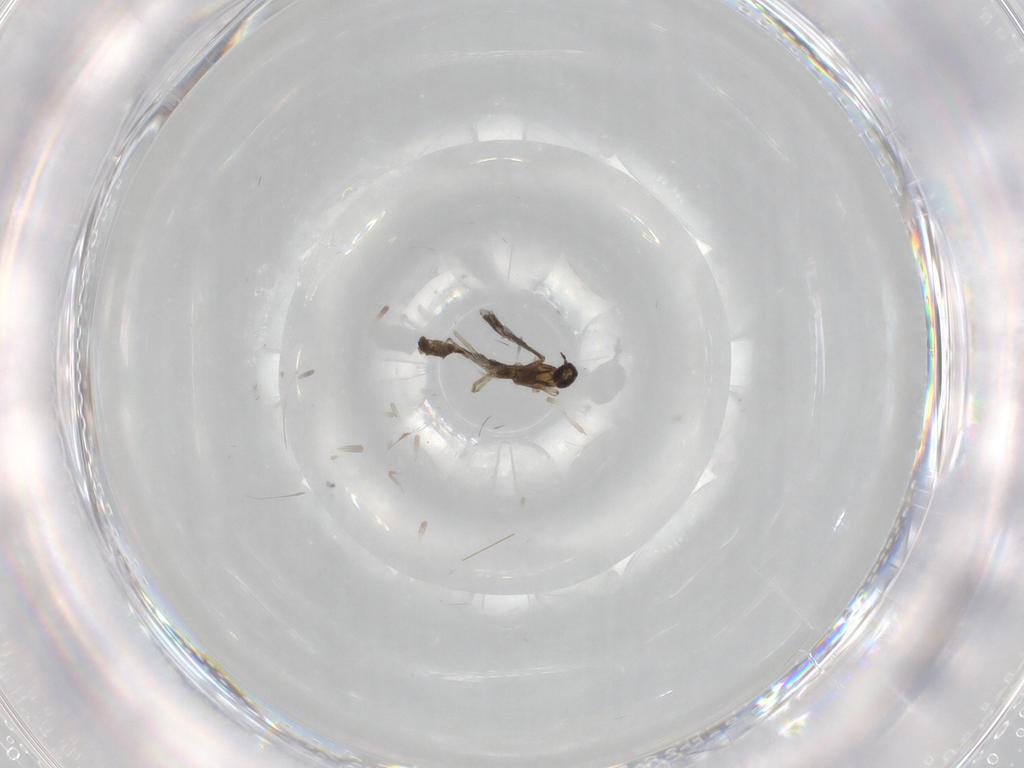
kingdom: Animalia
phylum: Arthropoda
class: Insecta
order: Diptera
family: Cecidomyiidae
